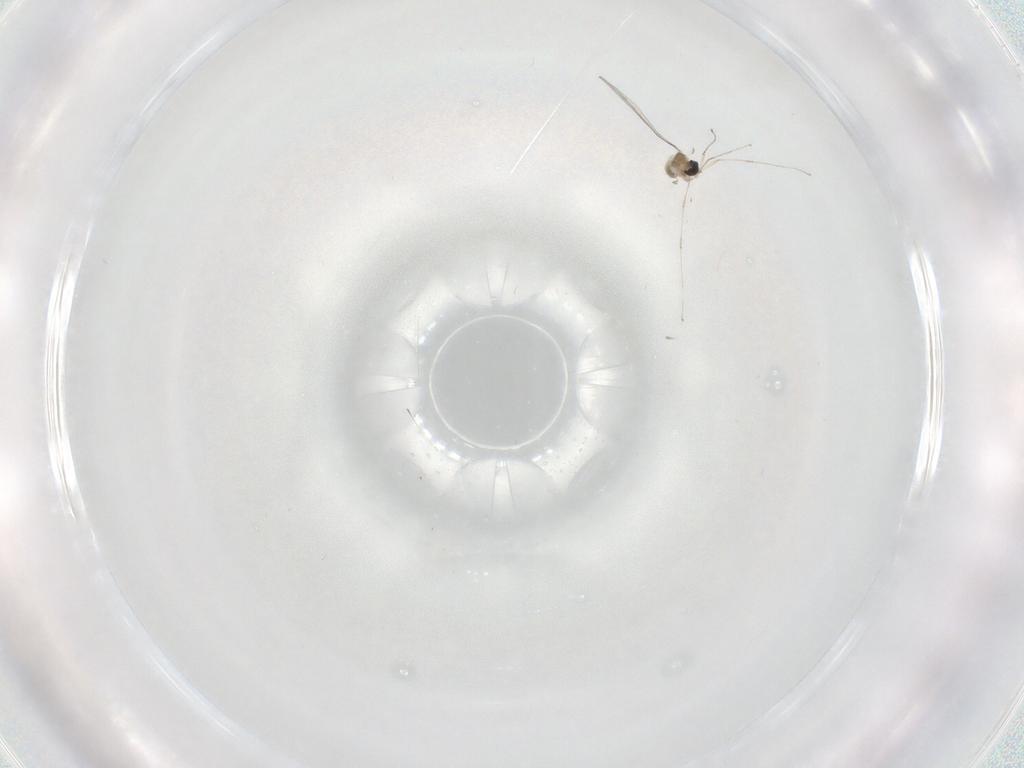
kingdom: Animalia
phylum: Arthropoda
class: Insecta
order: Diptera
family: Cecidomyiidae
